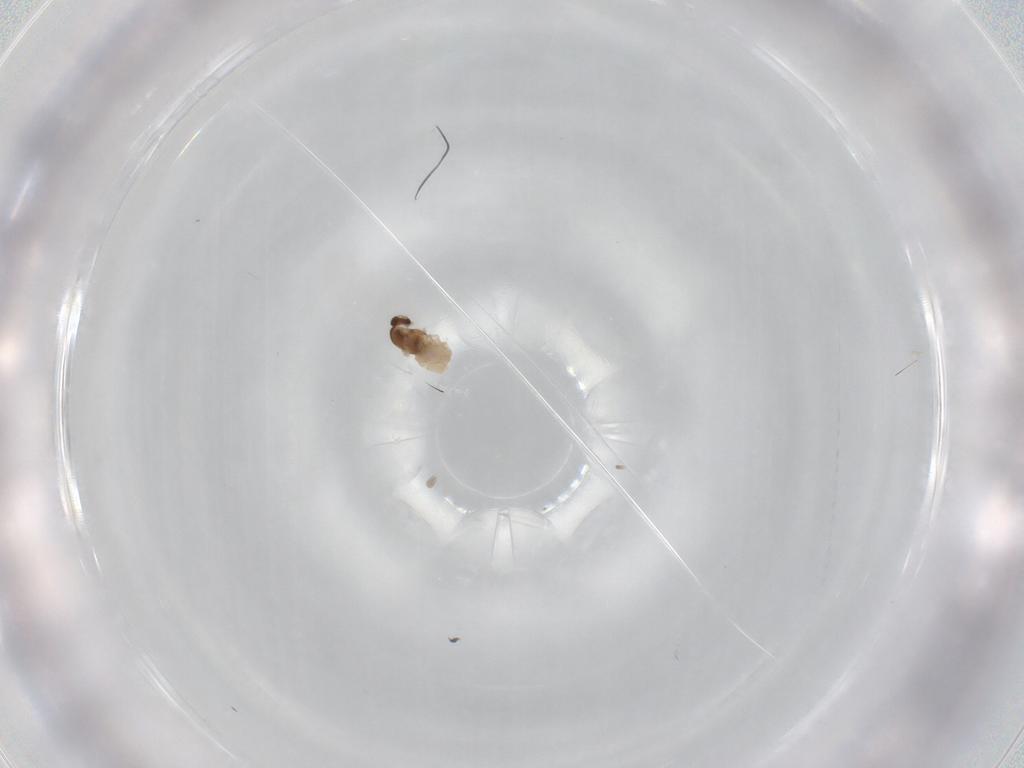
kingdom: Animalia
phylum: Arthropoda
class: Insecta
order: Diptera
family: Cecidomyiidae
